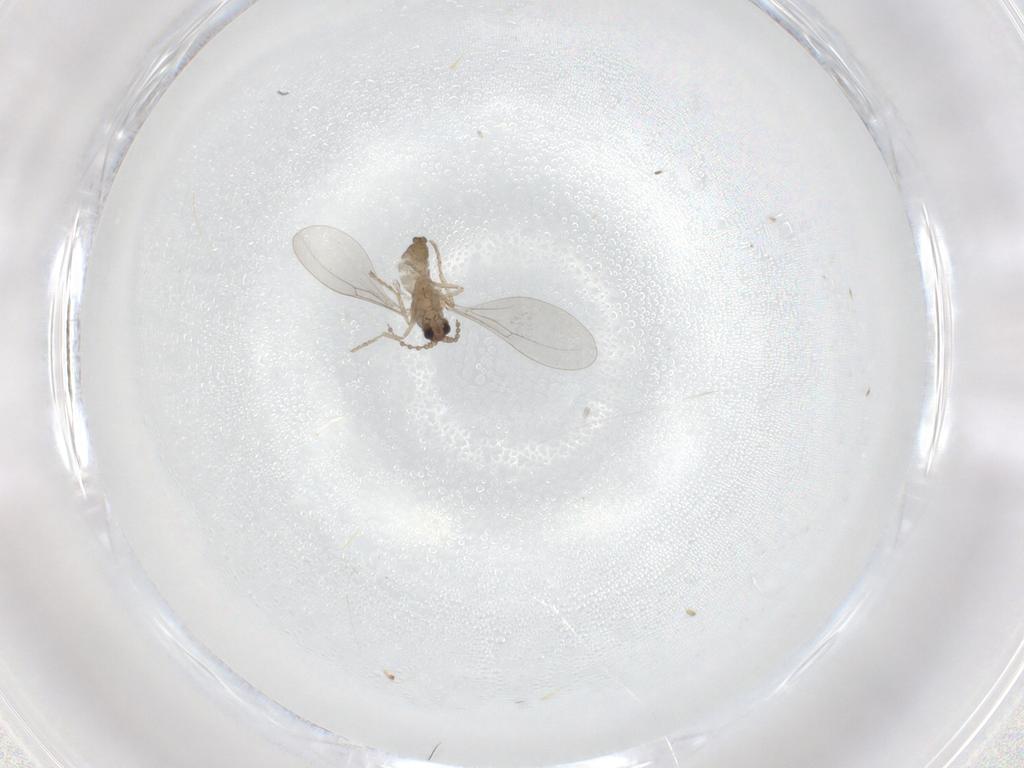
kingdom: Animalia
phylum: Arthropoda
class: Insecta
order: Diptera
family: Cecidomyiidae
